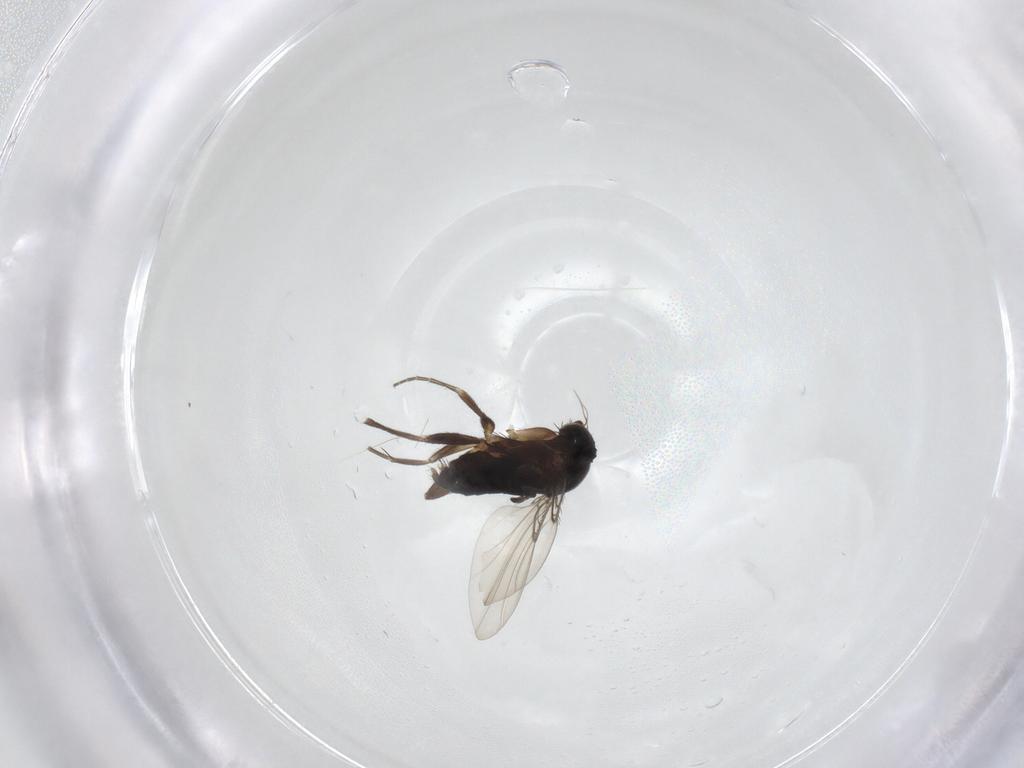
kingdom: Animalia
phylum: Arthropoda
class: Insecta
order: Diptera
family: Phoridae
